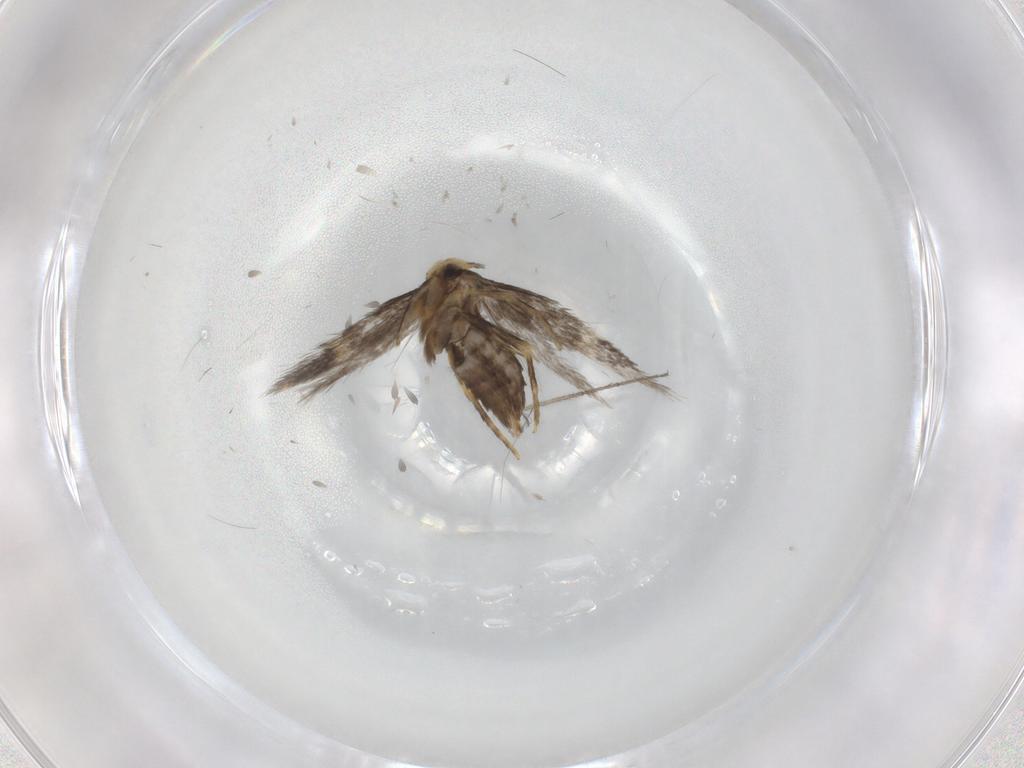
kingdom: Animalia
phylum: Arthropoda
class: Insecta
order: Lepidoptera
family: Nepticulidae
